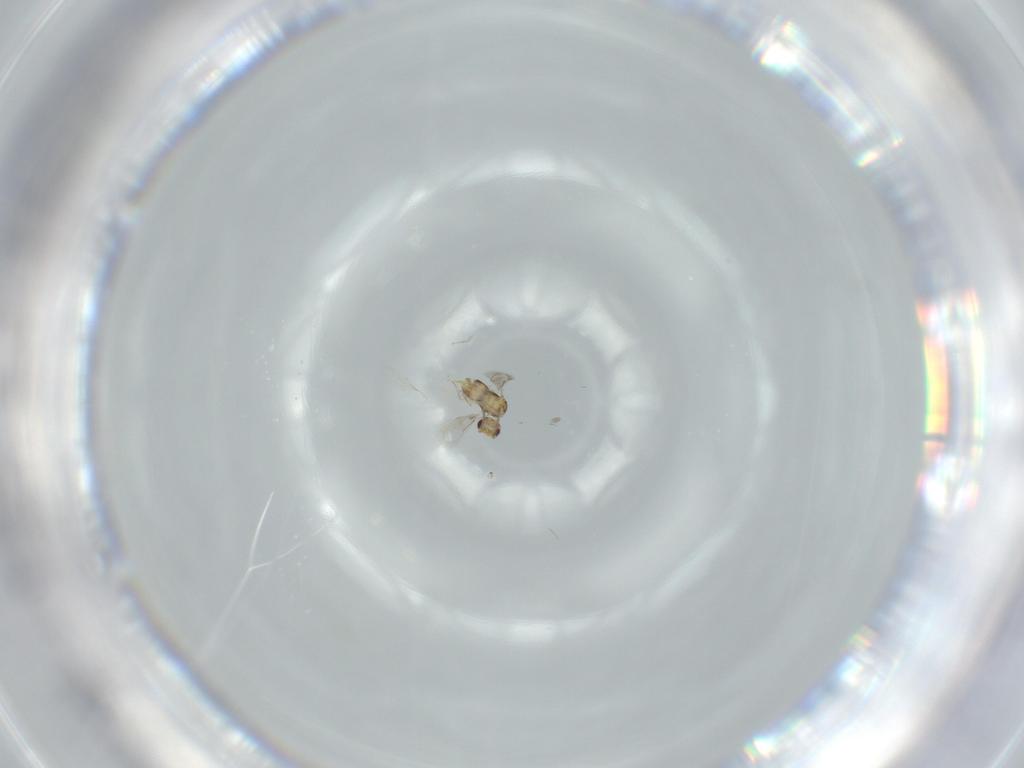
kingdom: Animalia
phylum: Arthropoda
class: Insecta
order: Hymenoptera
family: Aphelinidae
